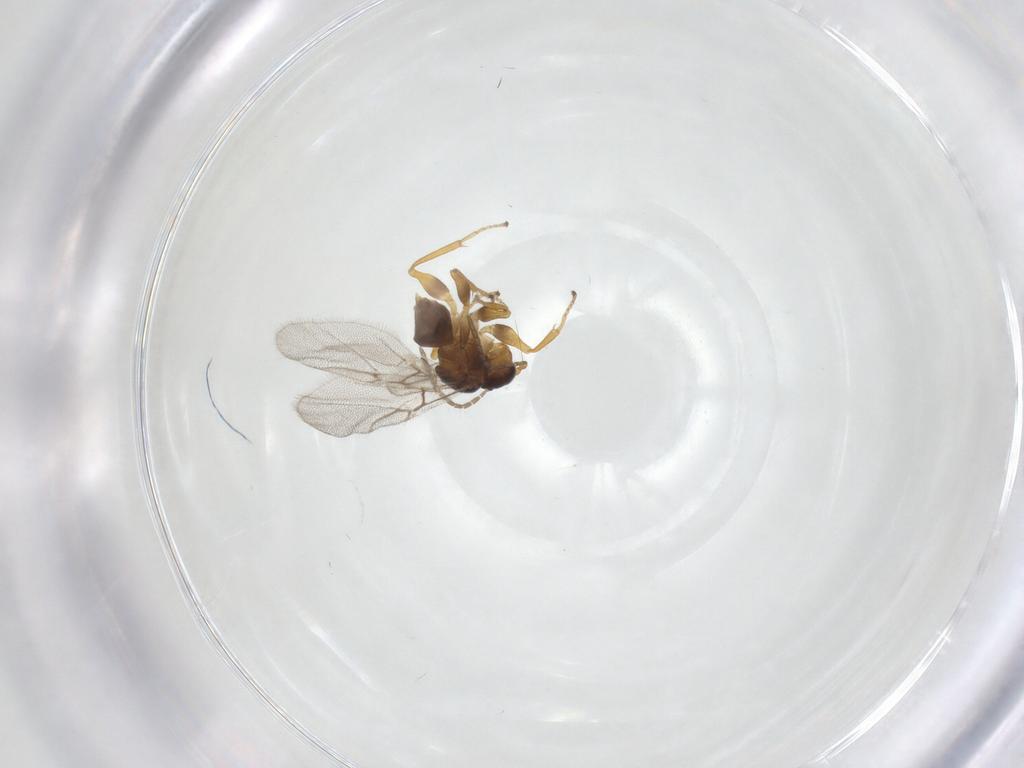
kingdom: Animalia
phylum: Arthropoda
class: Insecta
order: Hymenoptera
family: Cynipidae
